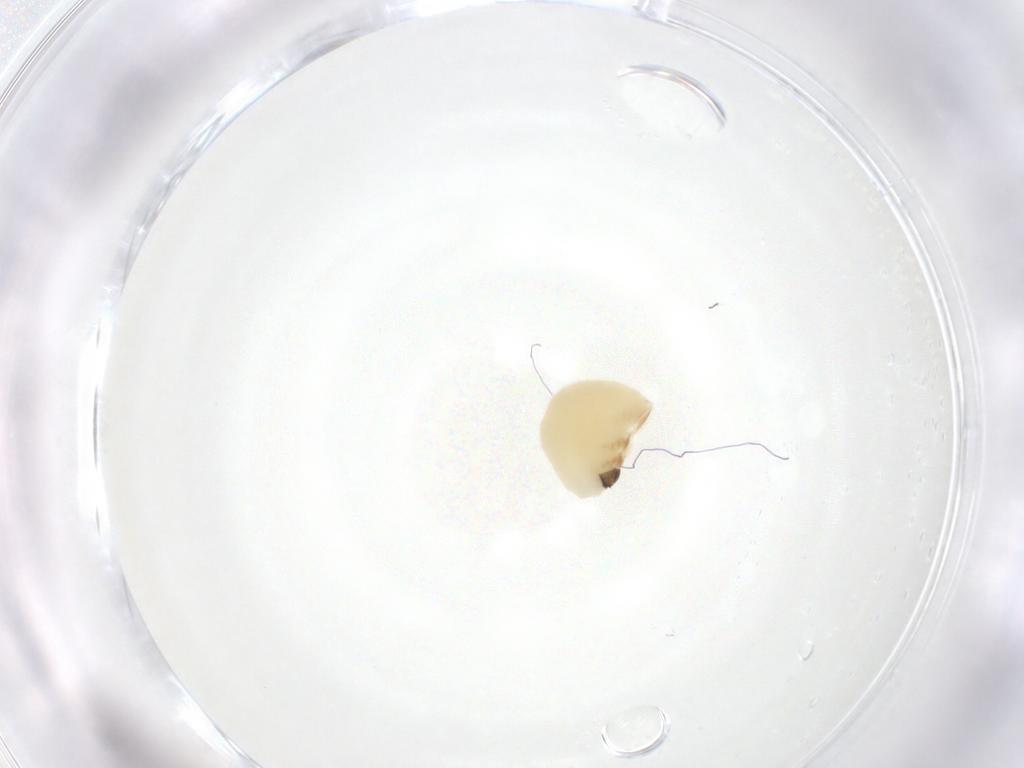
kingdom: Animalia
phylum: Arthropoda
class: Insecta
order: Hymenoptera
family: Eulophidae
